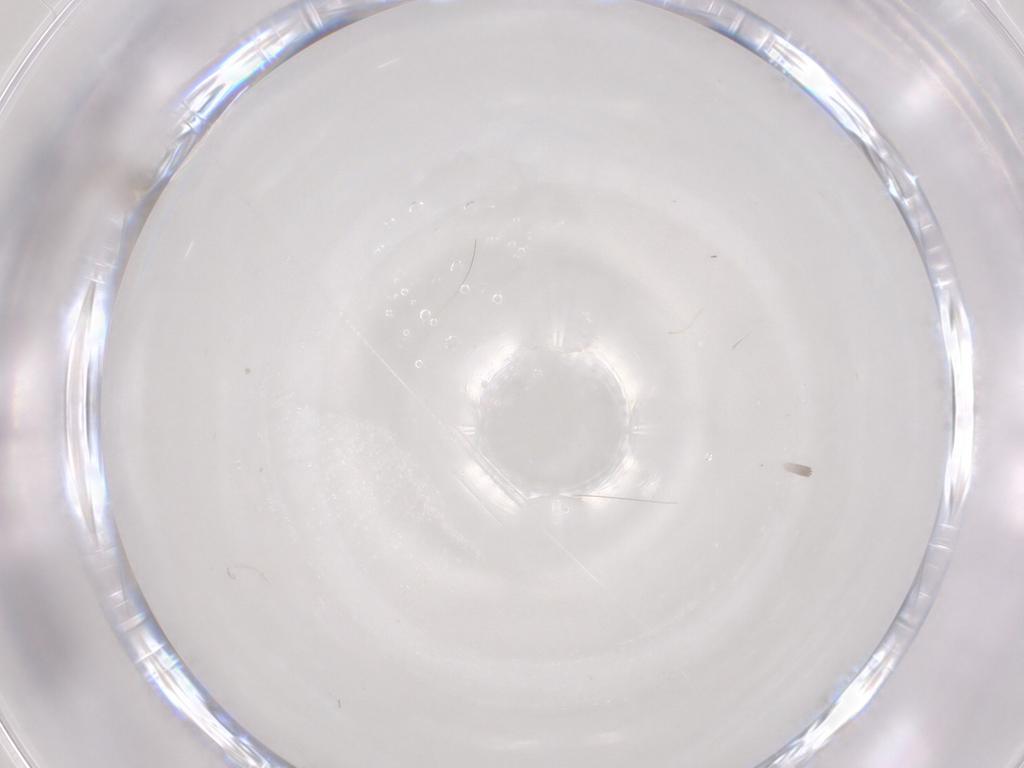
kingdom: Animalia
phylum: Arthropoda
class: Insecta
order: Diptera
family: Cecidomyiidae
